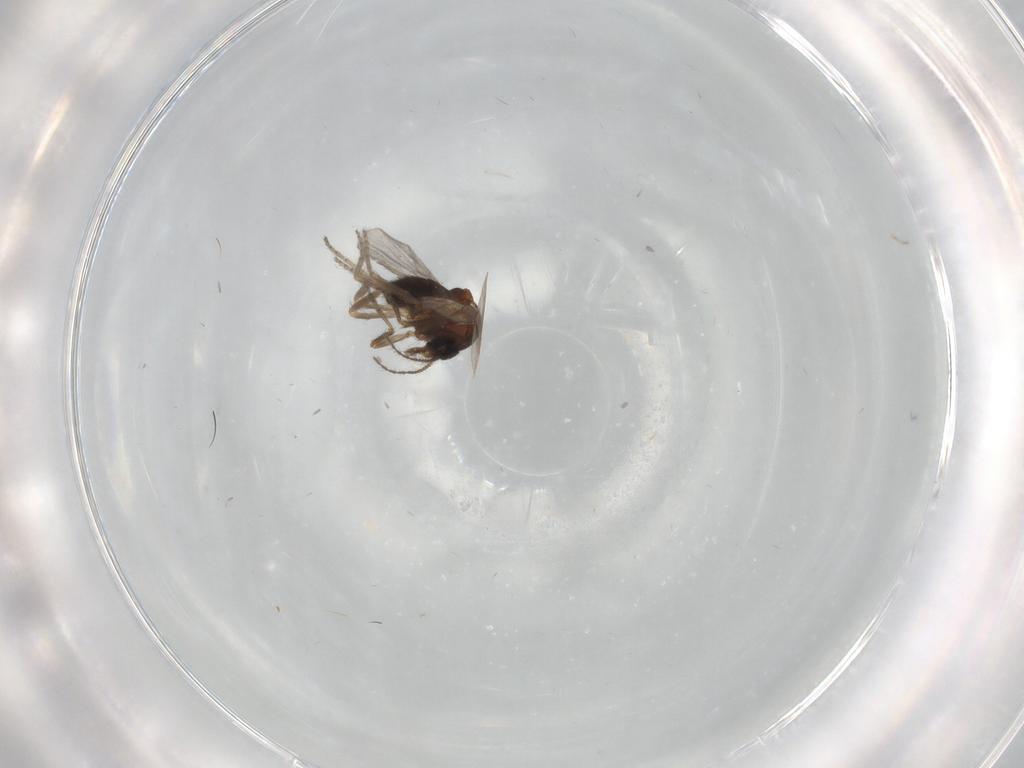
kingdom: Animalia
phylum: Arthropoda
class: Insecta
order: Diptera
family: Ceratopogonidae
